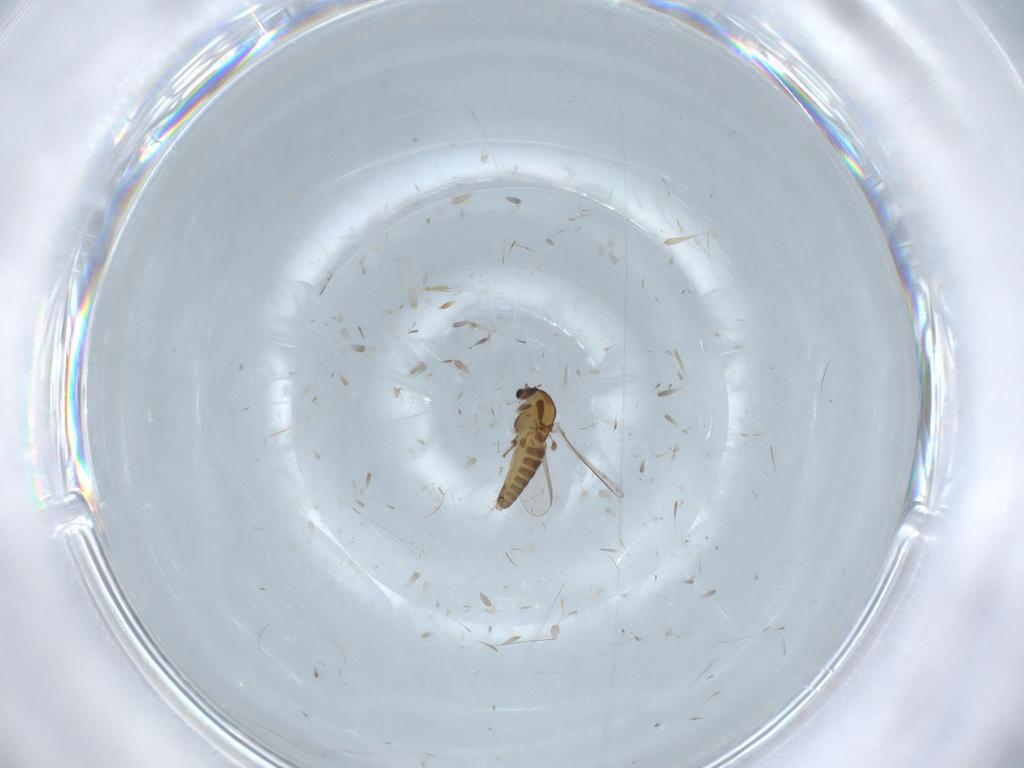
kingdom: Animalia
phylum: Arthropoda
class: Insecta
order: Diptera
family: Chironomidae
